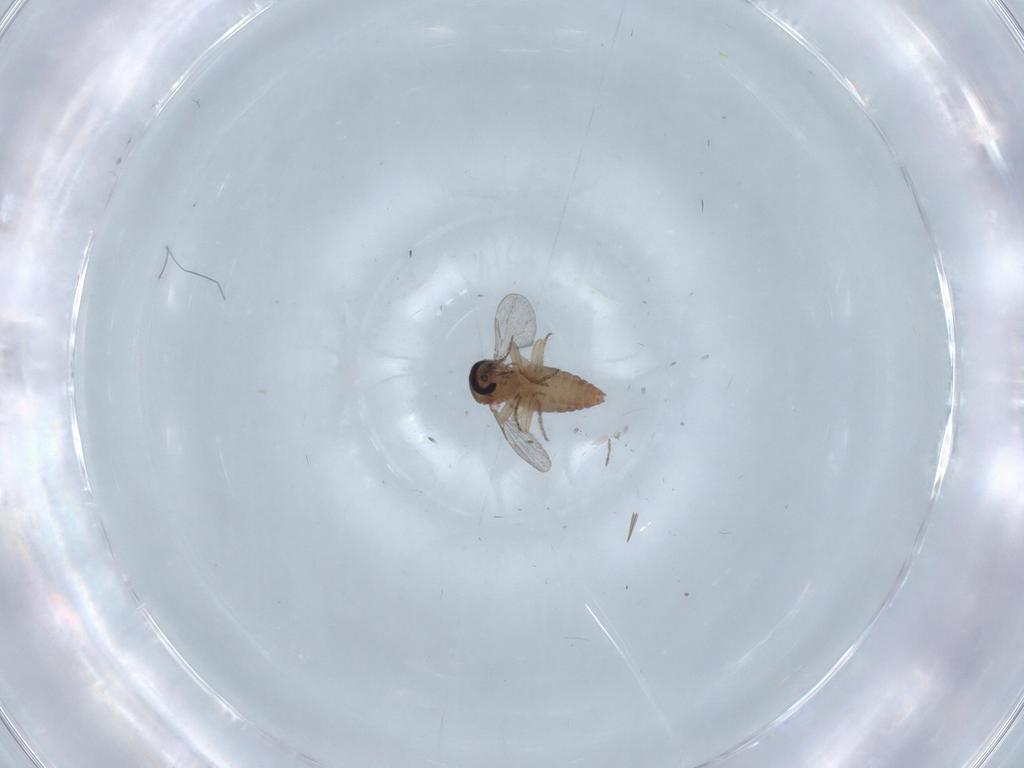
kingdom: Animalia
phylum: Arthropoda
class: Insecta
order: Diptera
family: Ceratopogonidae
